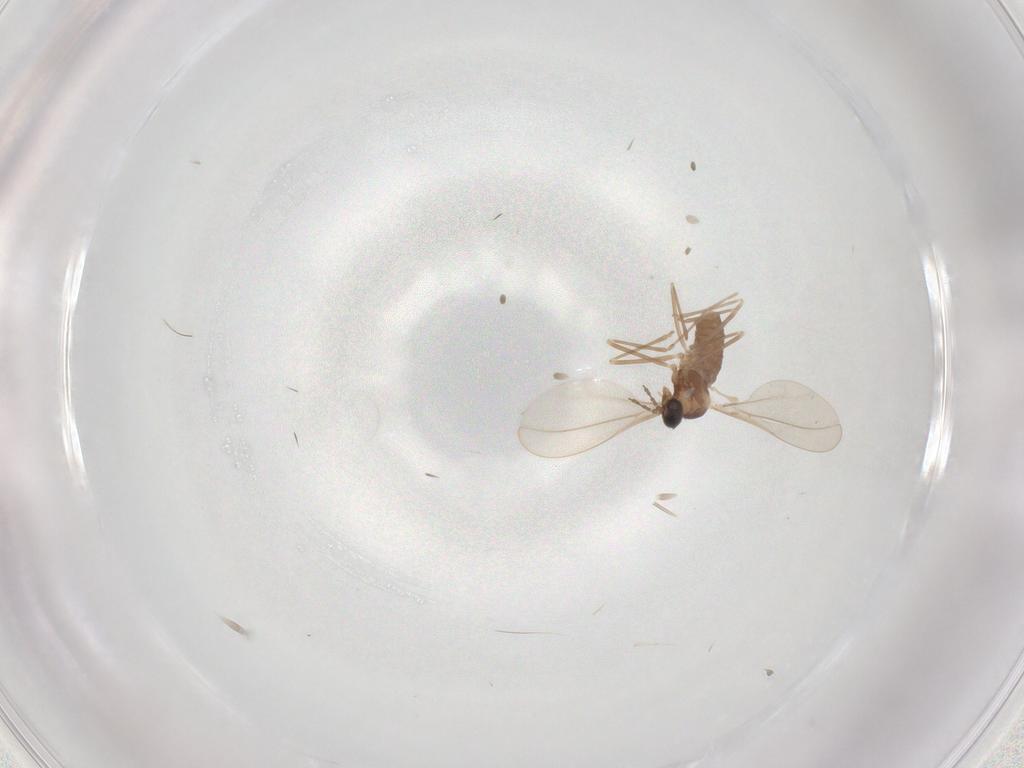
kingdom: Animalia
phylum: Arthropoda
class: Insecta
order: Diptera
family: Cecidomyiidae
